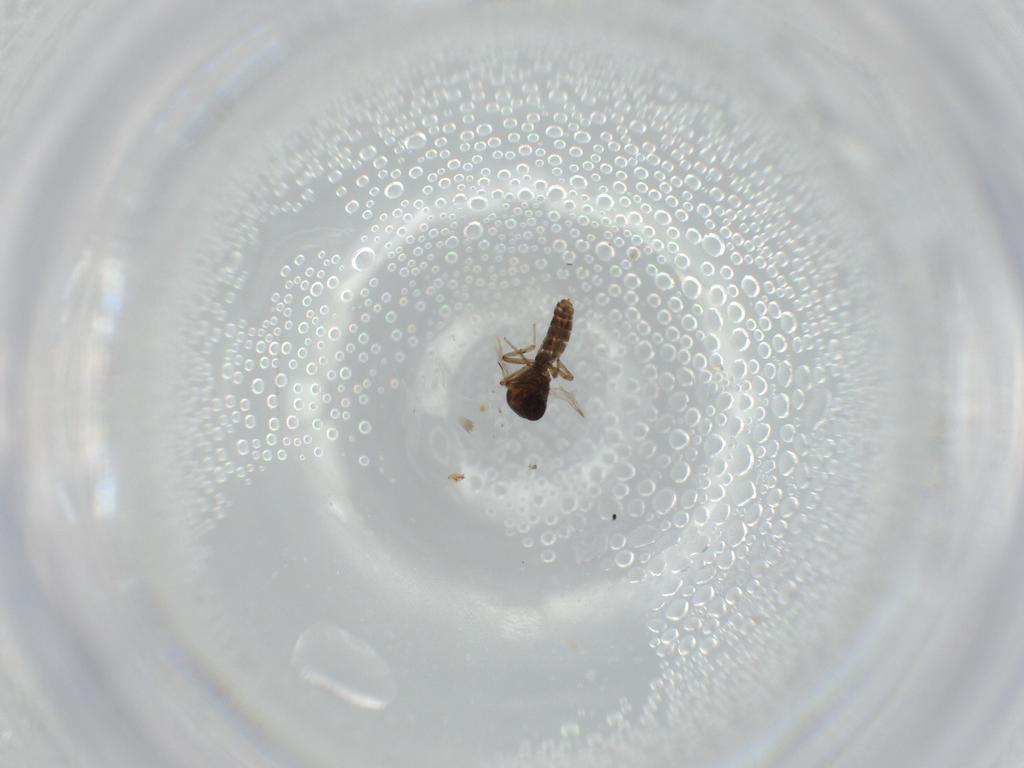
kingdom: Animalia
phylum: Arthropoda
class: Insecta
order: Diptera
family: Ceratopogonidae
